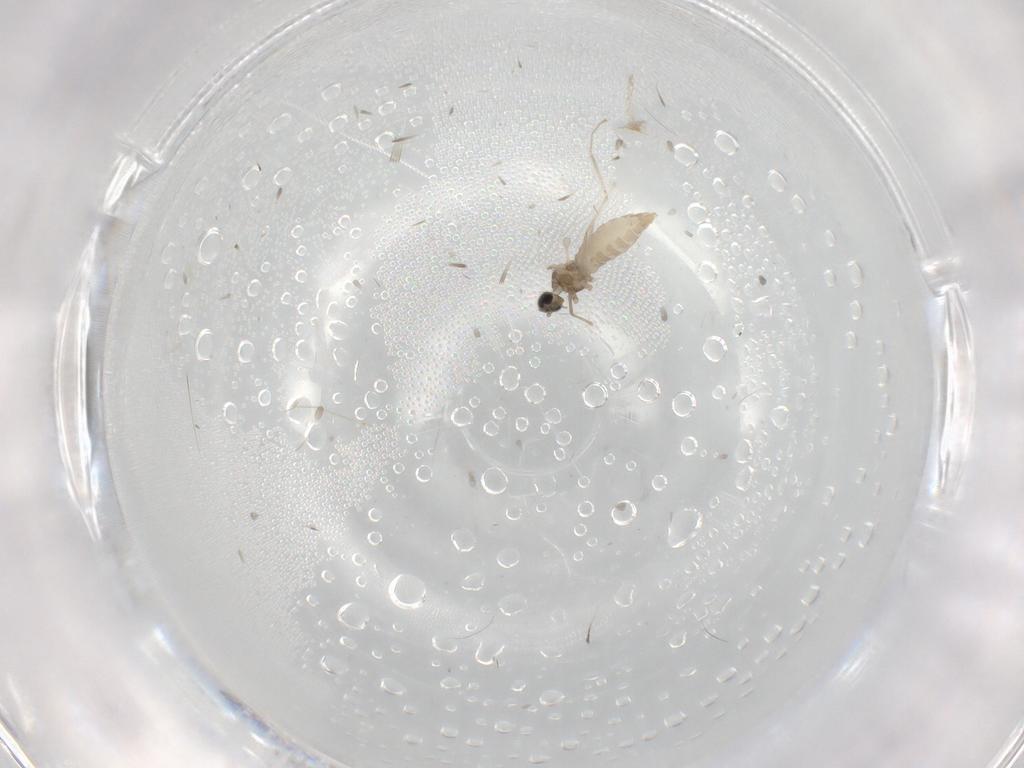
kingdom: Animalia
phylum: Arthropoda
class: Insecta
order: Diptera
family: Cecidomyiidae
